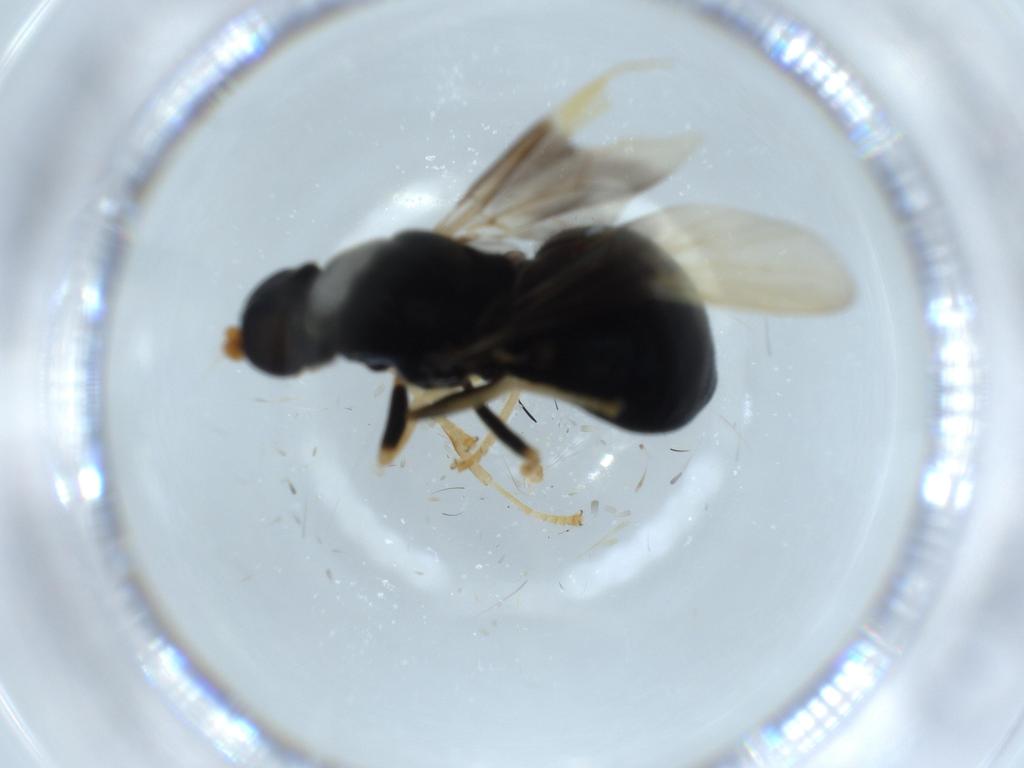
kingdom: Animalia
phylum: Arthropoda
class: Insecta
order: Diptera
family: Stratiomyidae
